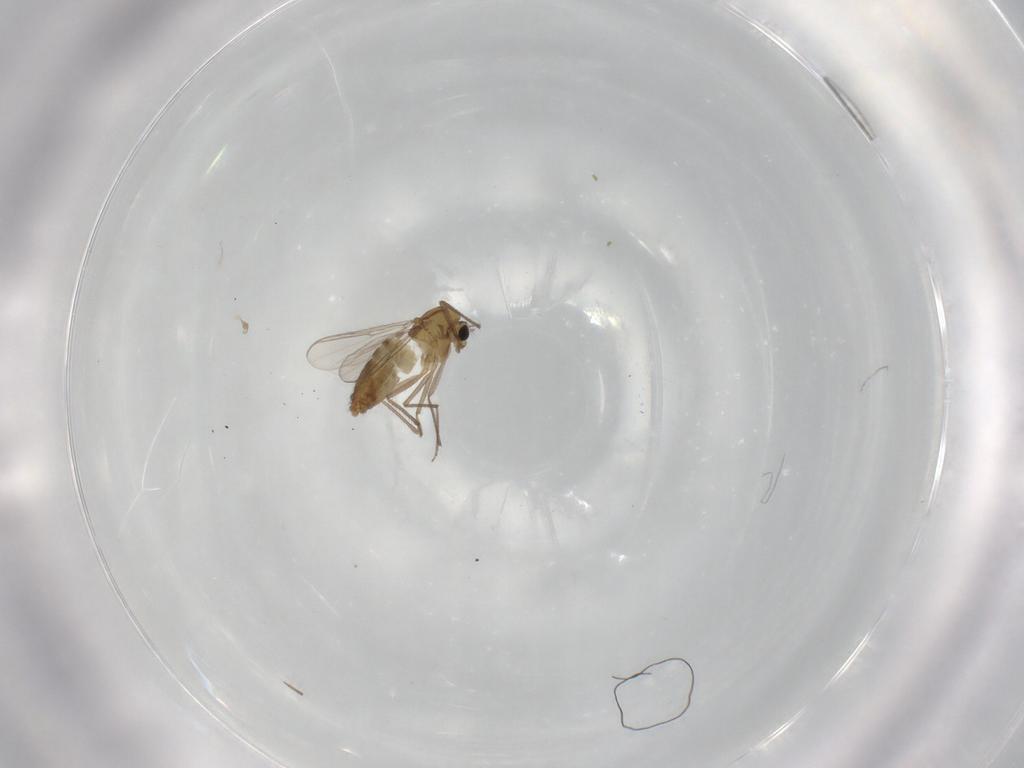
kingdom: Animalia
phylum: Arthropoda
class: Insecta
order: Diptera
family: Chironomidae
